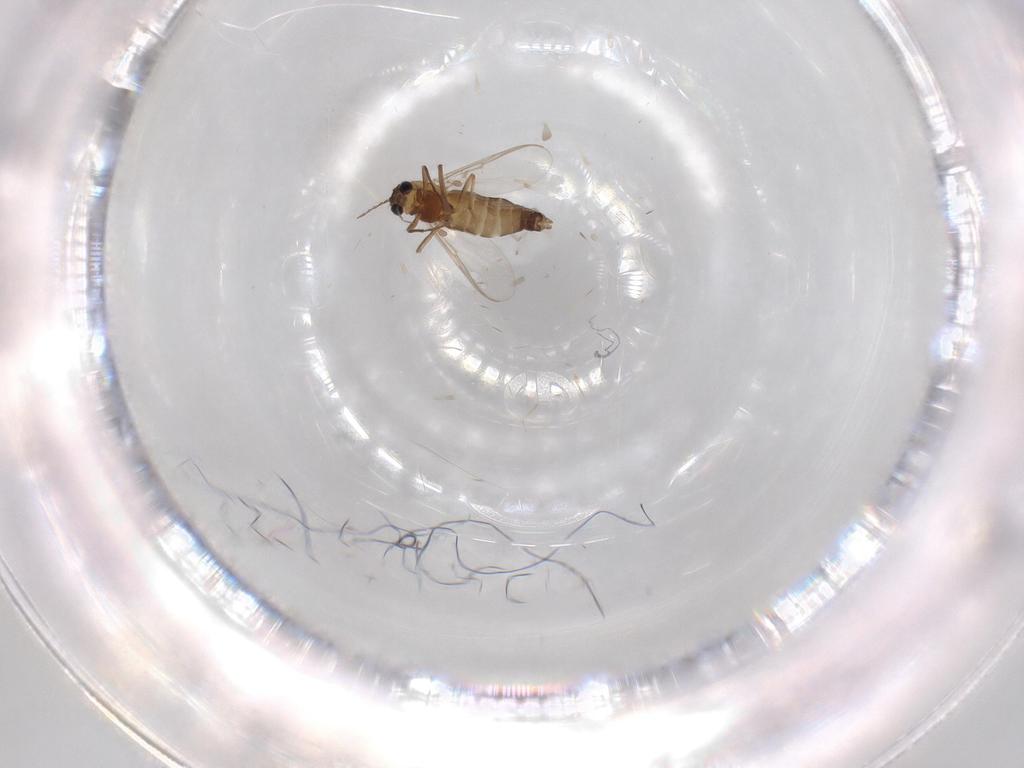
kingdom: Animalia
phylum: Arthropoda
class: Insecta
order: Diptera
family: Chironomidae
